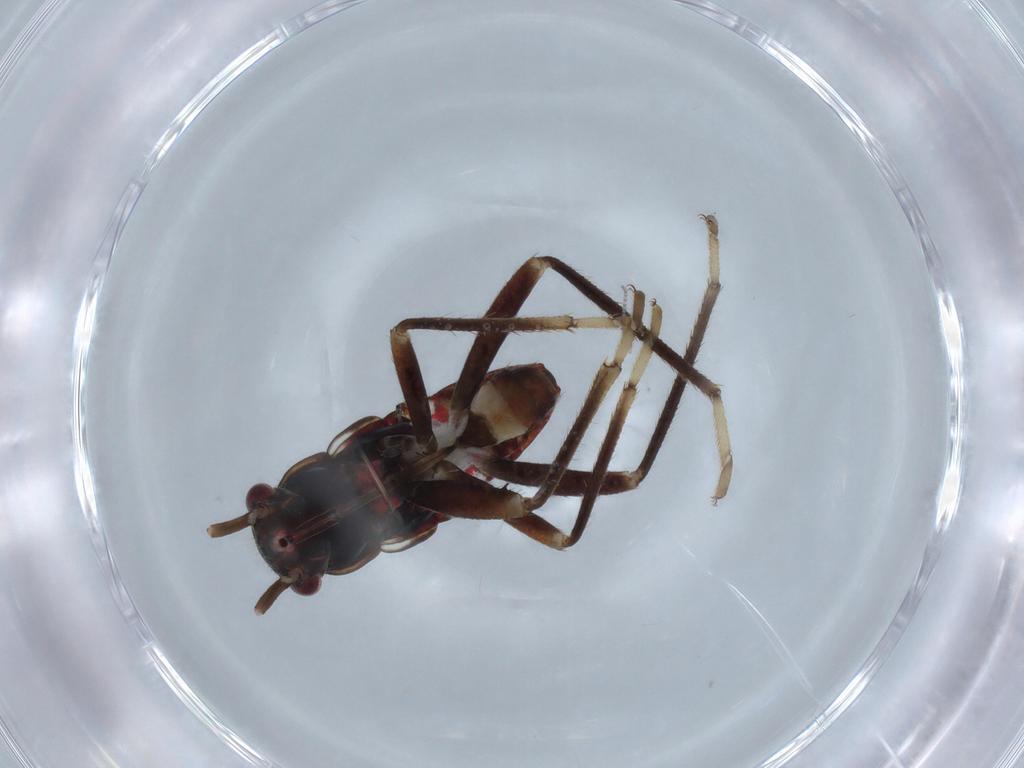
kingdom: Animalia
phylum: Arthropoda
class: Insecta
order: Hemiptera
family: Rhyparochromidae
